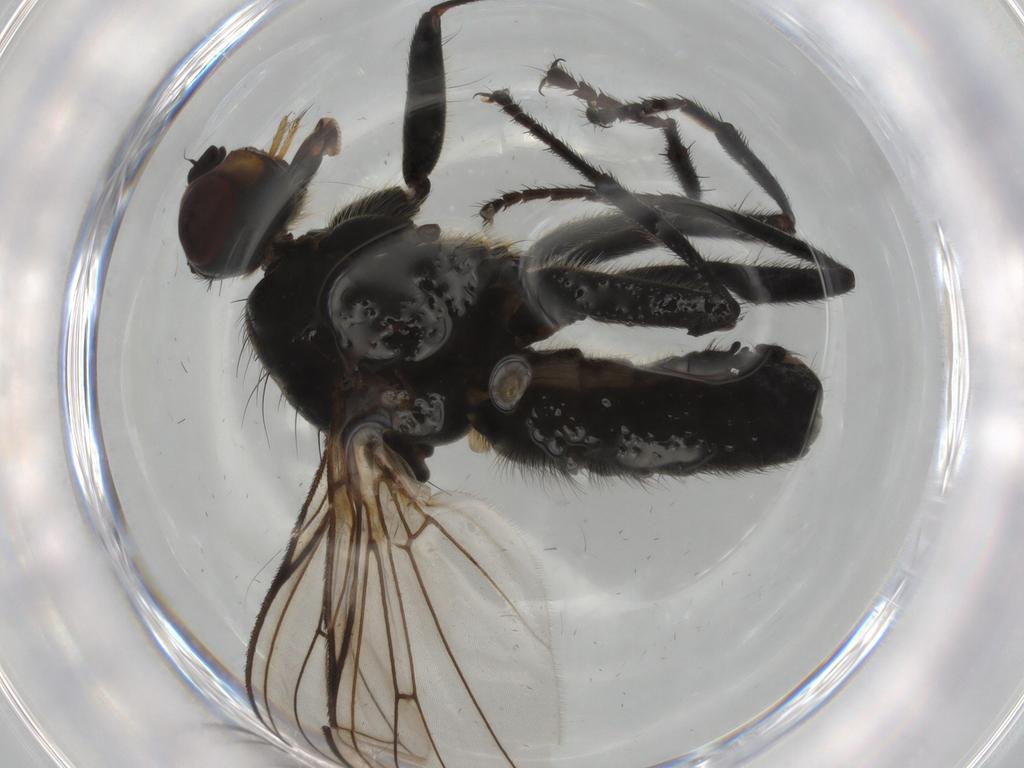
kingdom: Animalia
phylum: Arthropoda
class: Insecta
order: Diptera
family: Scathophagidae
